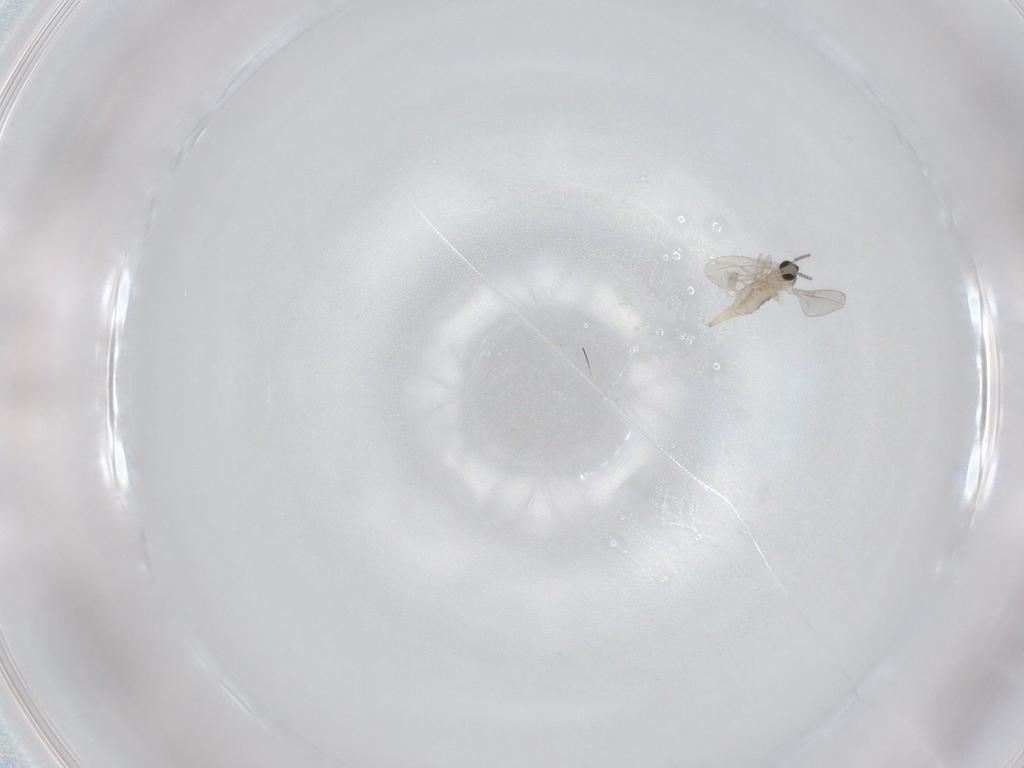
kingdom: Animalia
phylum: Arthropoda
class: Insecta
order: Diptera
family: Cecidomyiidae
